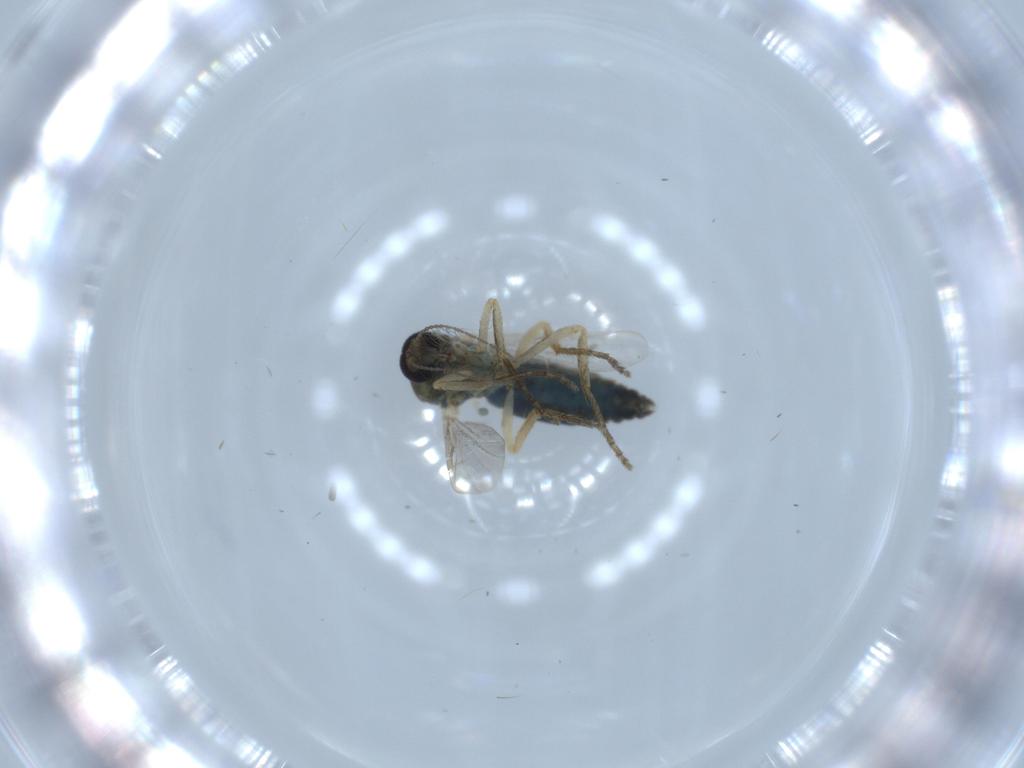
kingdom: Animalia
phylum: Arthropoda
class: Insecta
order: Diptera
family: Ceratopogonidae
